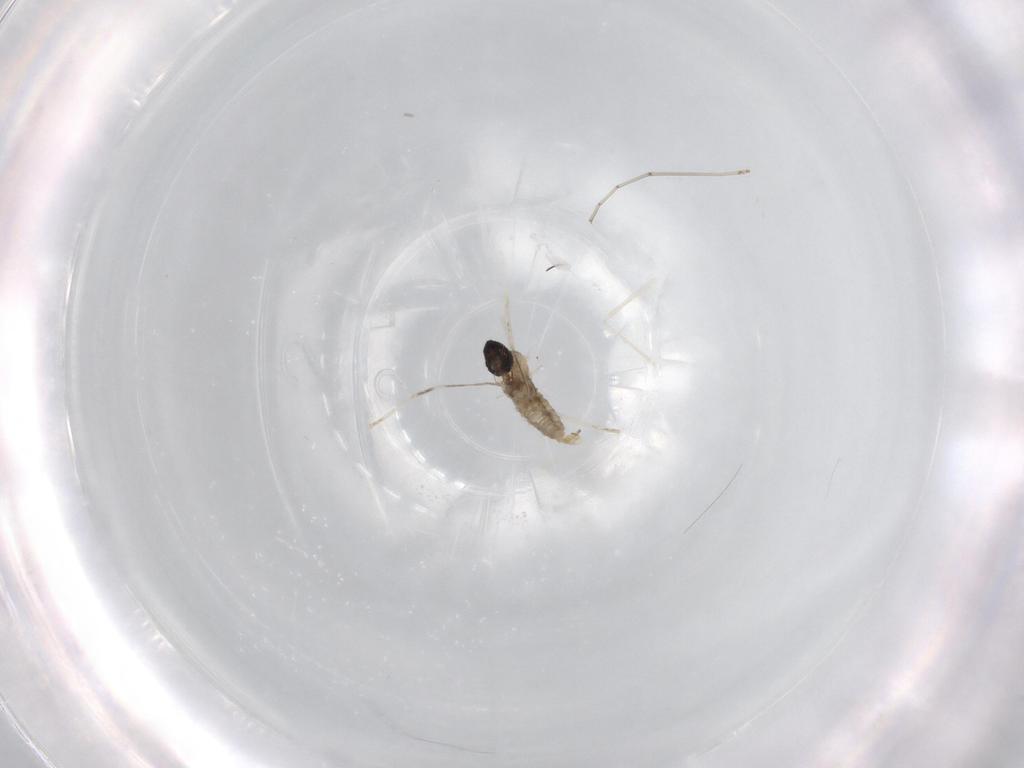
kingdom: Animalia
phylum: Arthropoda
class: Insecta
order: Diptera
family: Cecidomyiidae
